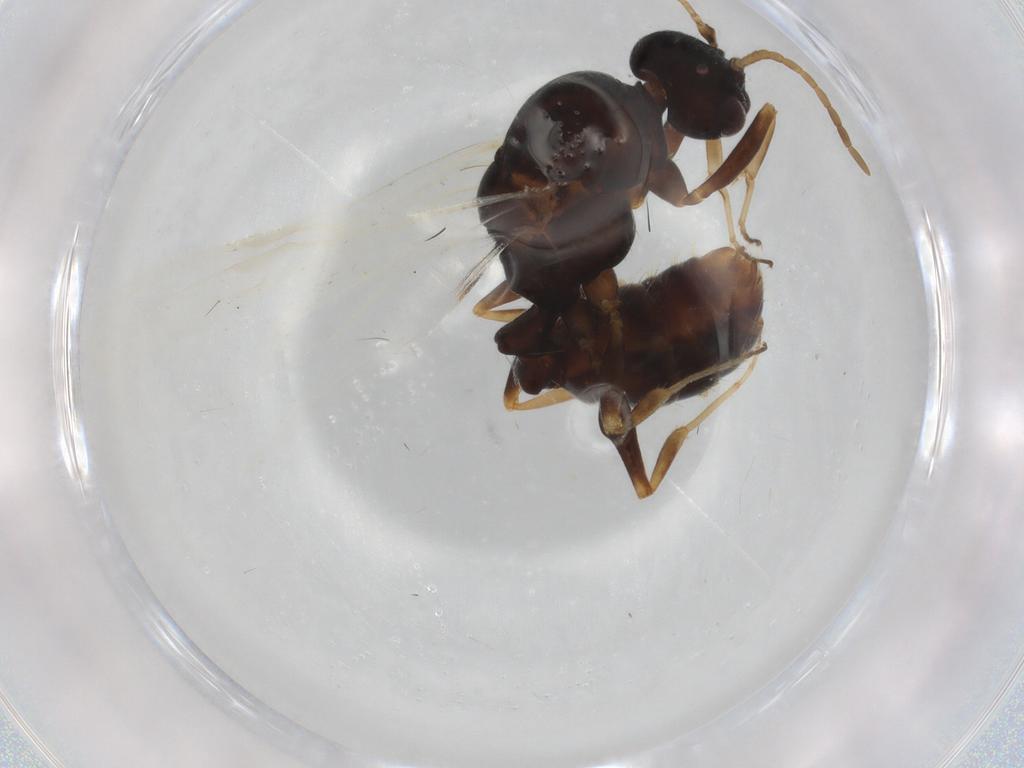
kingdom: Animalia
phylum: Arthropoda
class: Insecta
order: Hymenoptera
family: Formicidae
